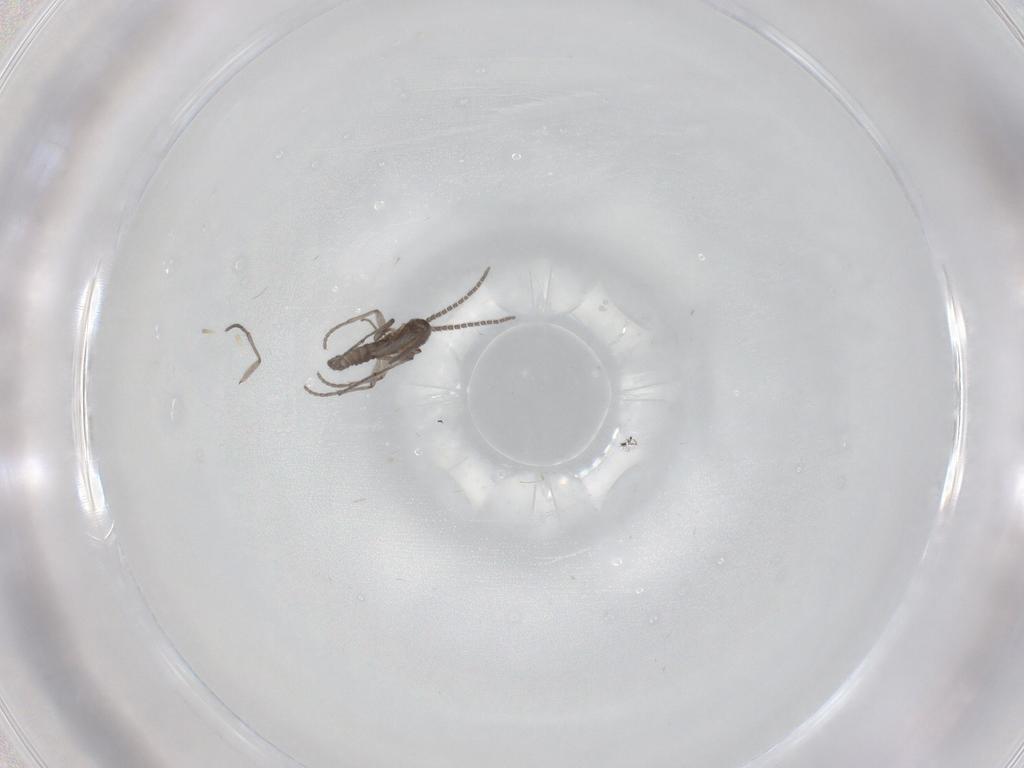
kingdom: Animalia
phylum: Arthropoda
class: Insecta
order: Diptera
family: Sciaridae
